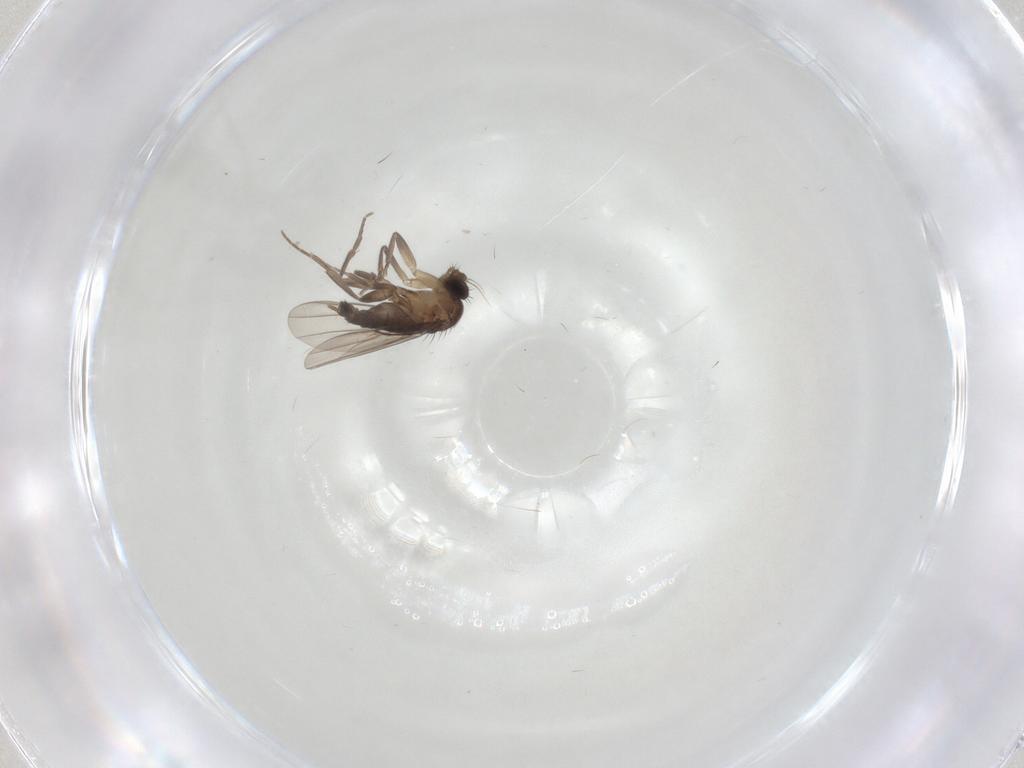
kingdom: Animalia
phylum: Arthropoda
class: Insecta
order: Diptera
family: Phoridae
